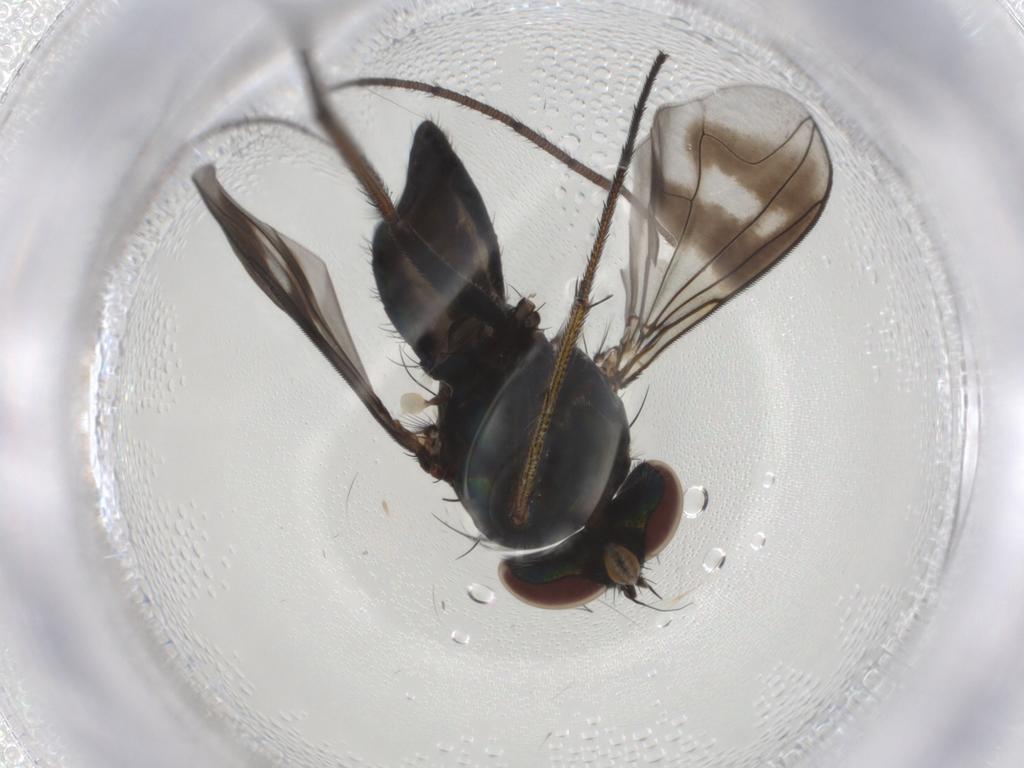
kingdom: Animalia
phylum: Arthropoda
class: Insecta
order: Diptera
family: Dolichopodidae
